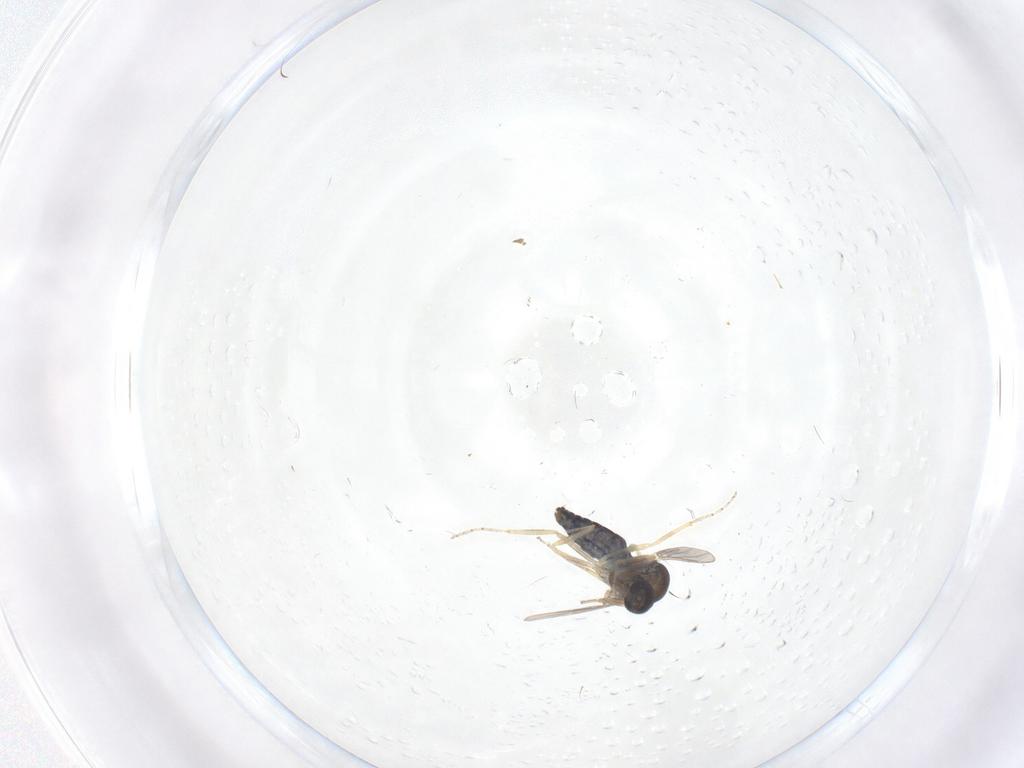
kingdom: Animalia
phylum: Arthropoda
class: Insecta
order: Diptera
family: Ceratopogonidae
